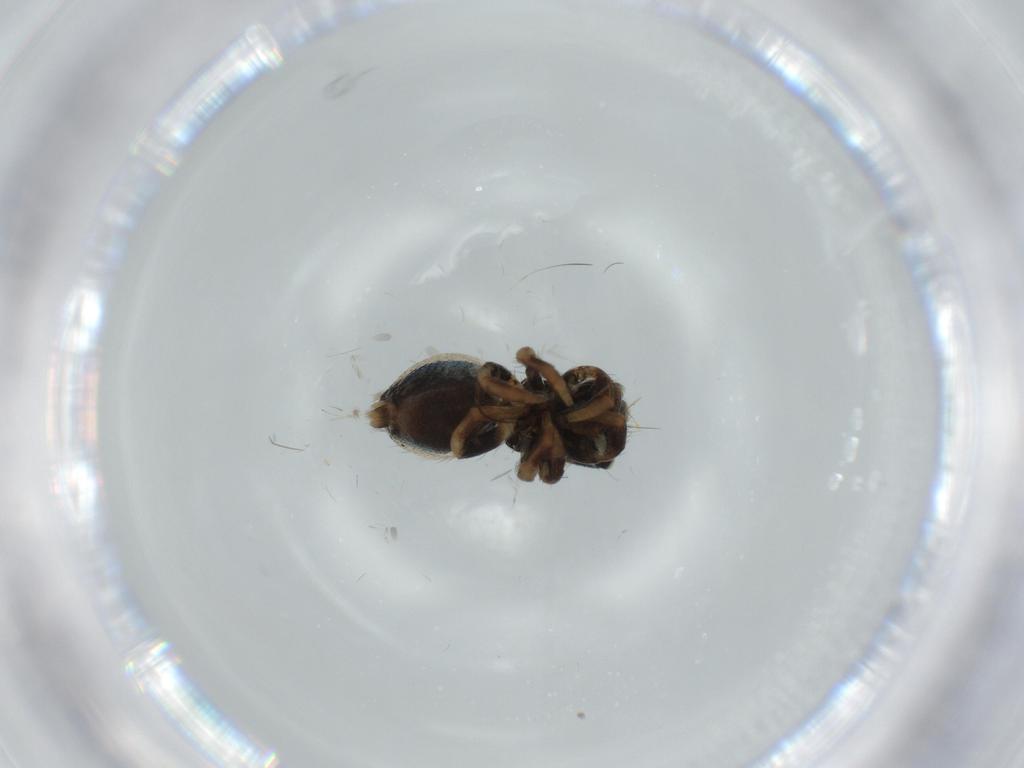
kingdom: Animalia
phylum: Arthropoda
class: Arachnida
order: Araneae
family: Salticidae
